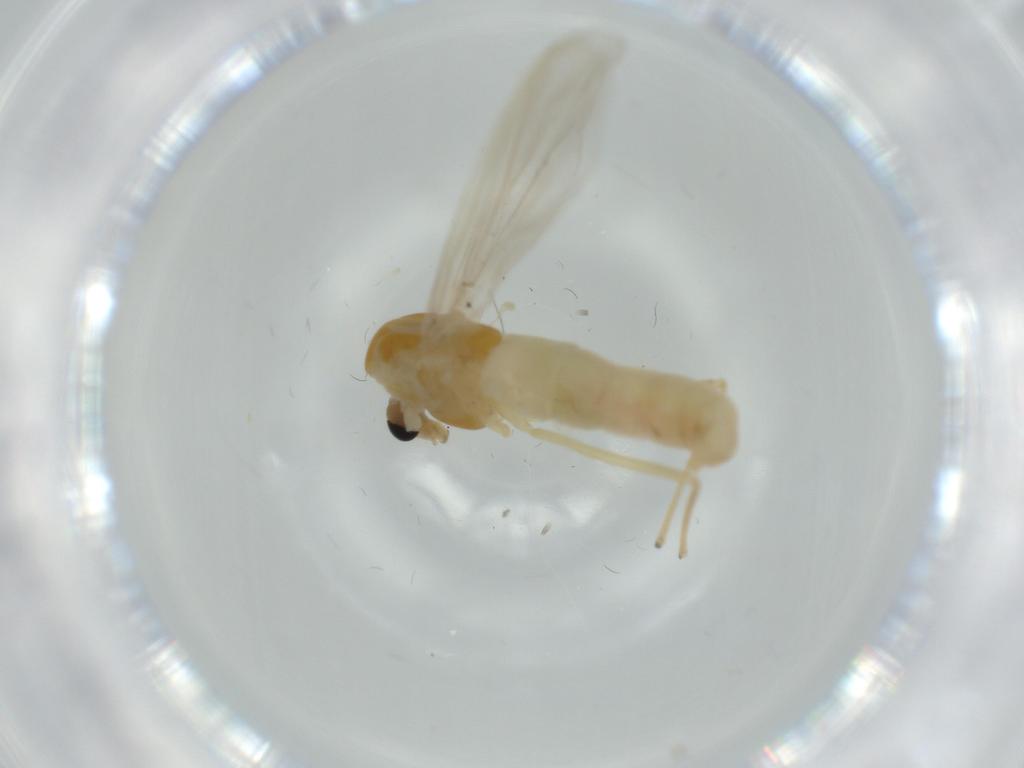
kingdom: Animalia
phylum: Arthropoda
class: Insecta
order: Diptera
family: Chironomidae
